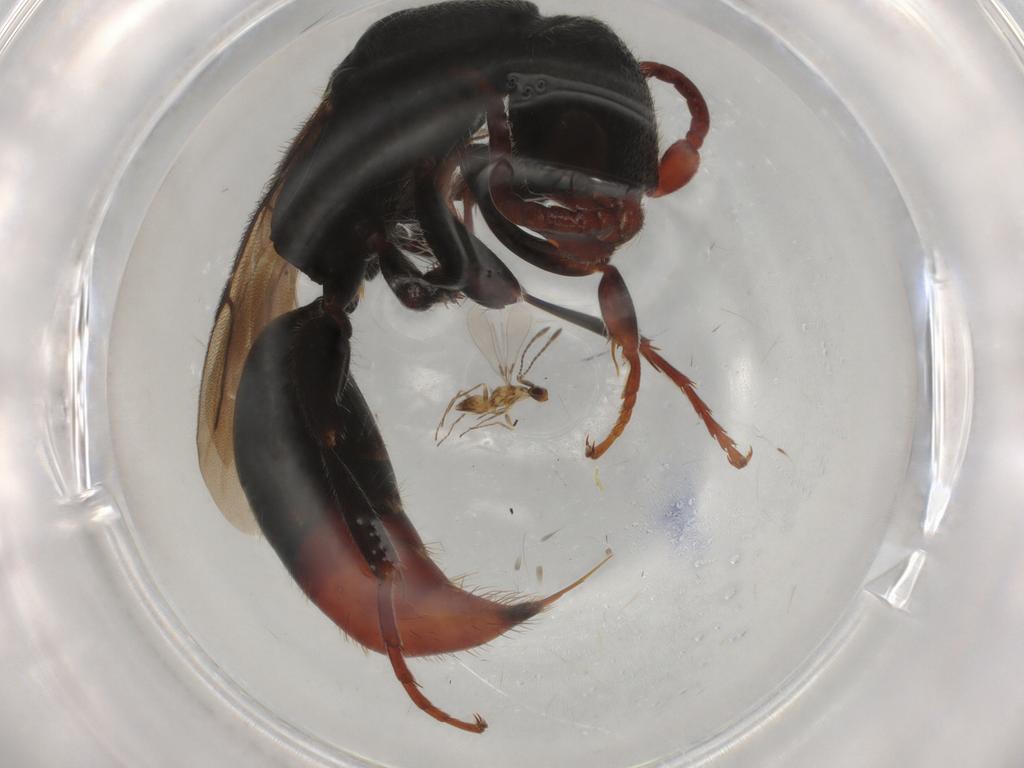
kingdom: Animalia
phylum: Arthropoda
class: Insecta
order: Hymenoptera
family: Bethylidae
